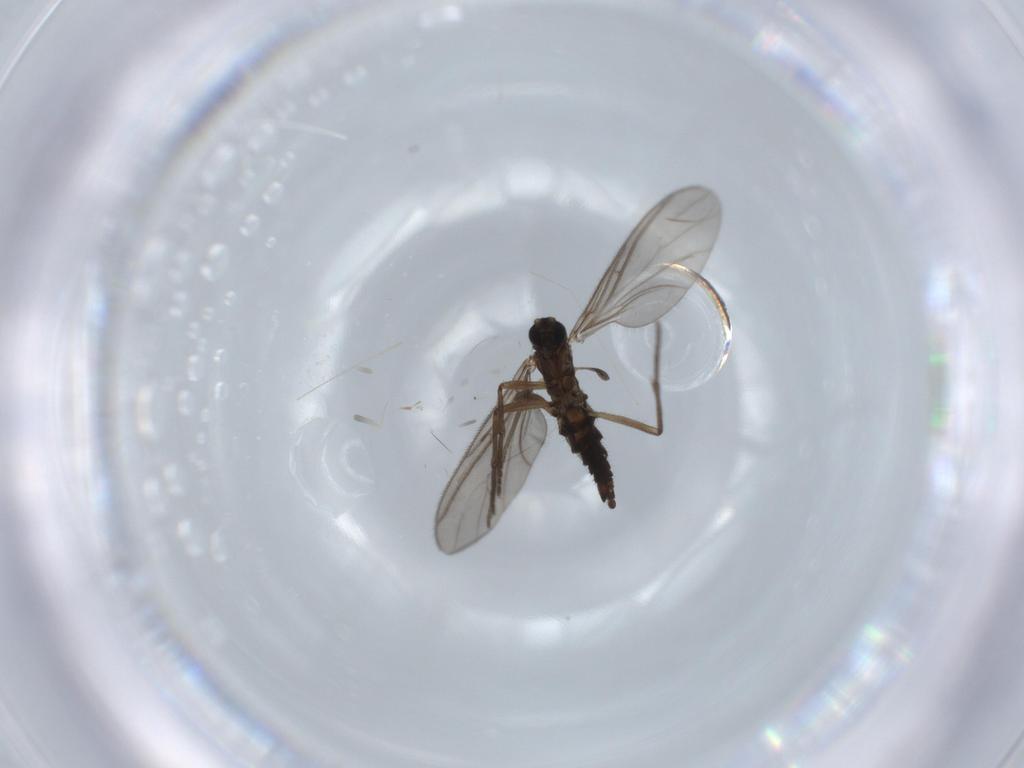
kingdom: Animalia
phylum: Arthropoda
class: Insecta
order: Diptera
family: Sciaridae
